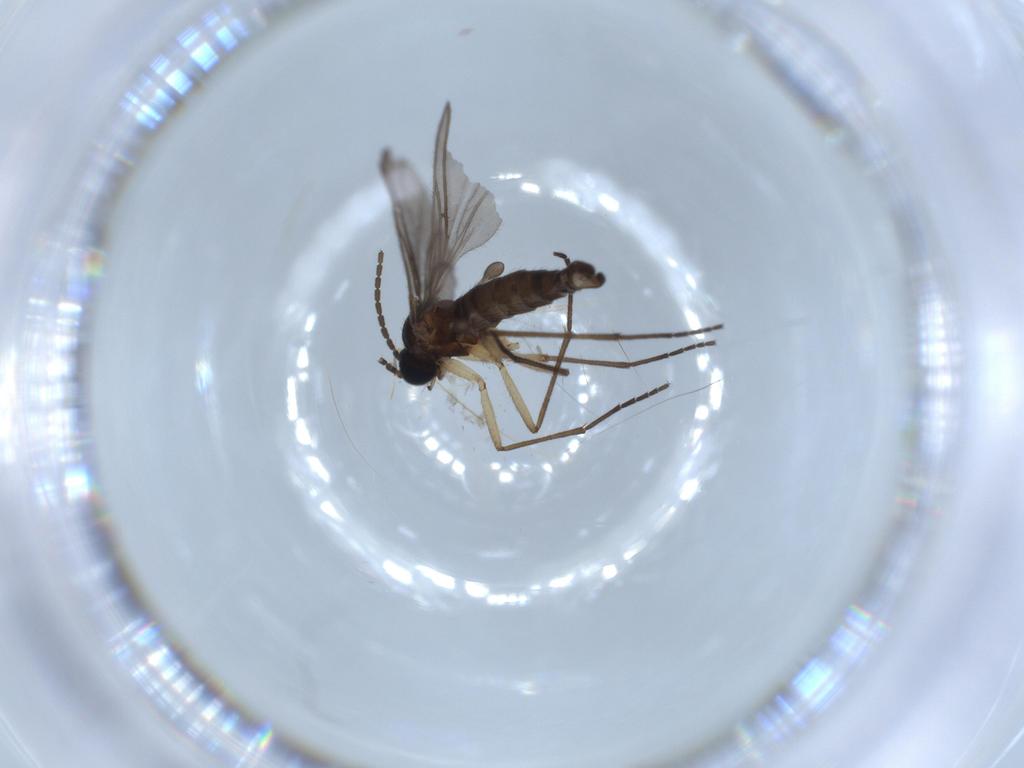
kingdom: Animalia
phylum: Arthropoda
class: Insecta
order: Diptera
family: Sciaridae
